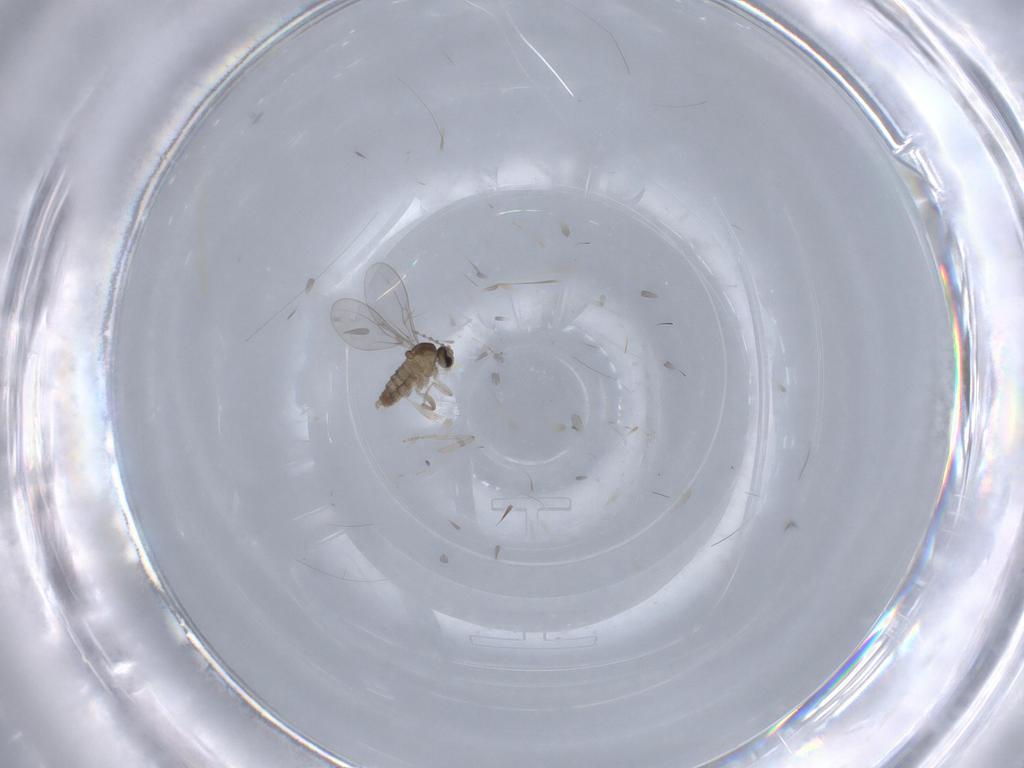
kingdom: Animalia
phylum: Arthropoda
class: Insecta
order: Diptera
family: Cecidomyiidae
